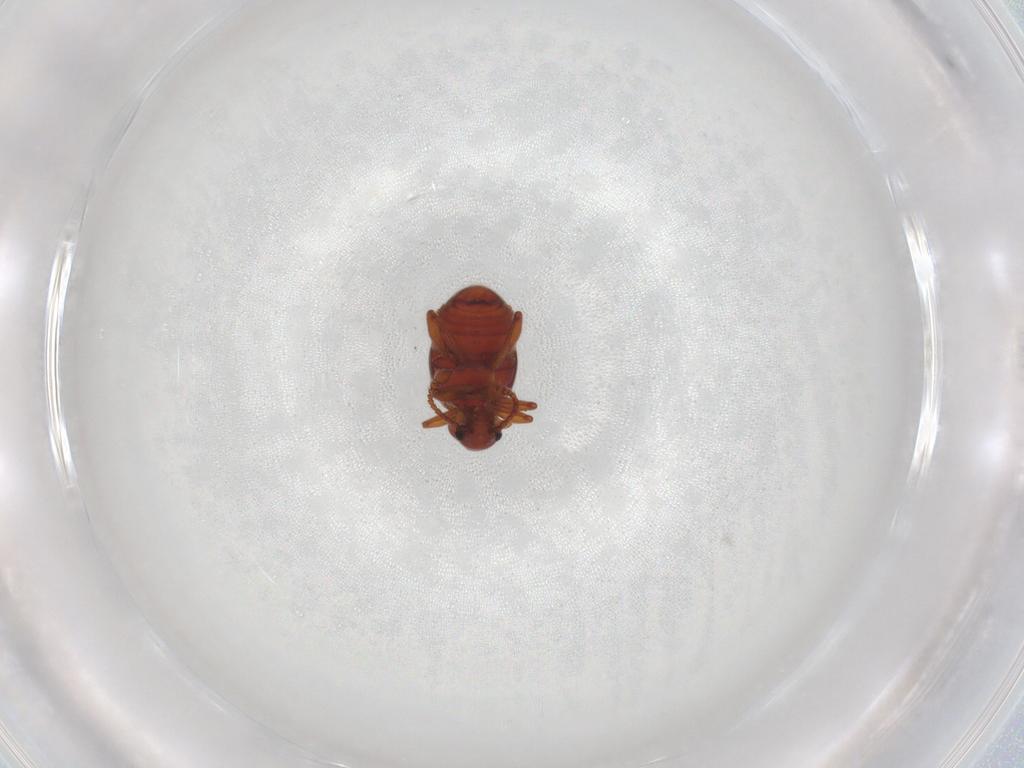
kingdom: Animalia
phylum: Arthropoda
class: Insecta
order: Coleoptera
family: Staphylinidae
